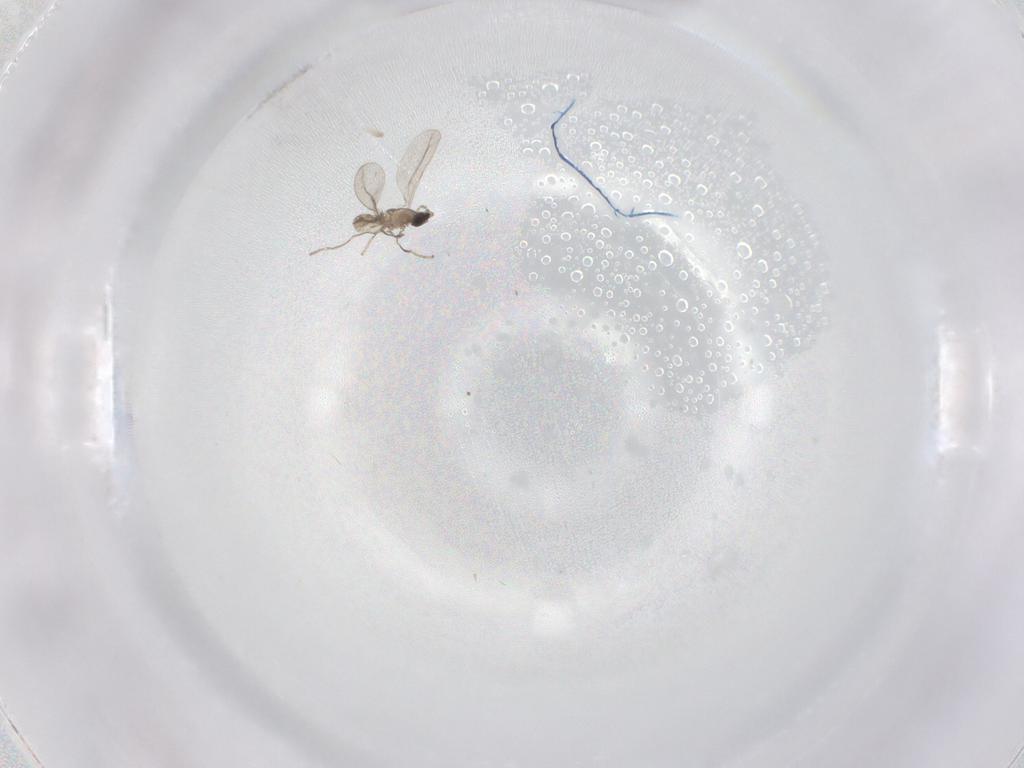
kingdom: Animalia
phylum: Arthropoda
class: Insecta
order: Diptera
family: Cecidomyiidae
